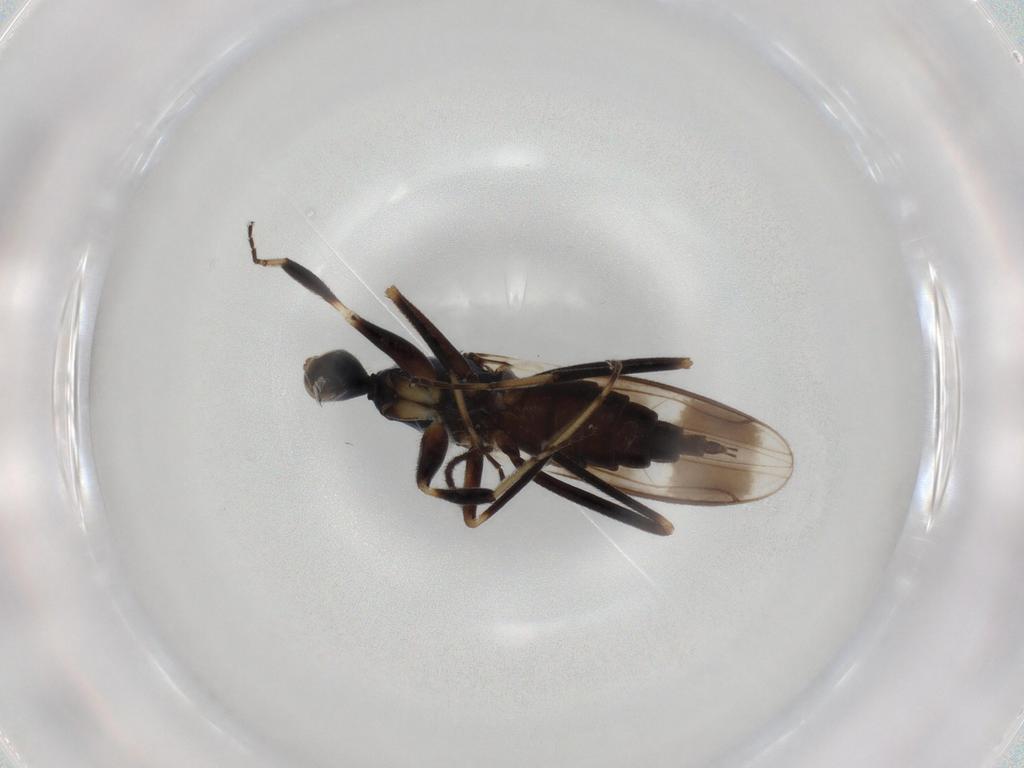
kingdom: Animalia
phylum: Arthropoda
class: Insecta
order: Diptera
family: Hybotidae
